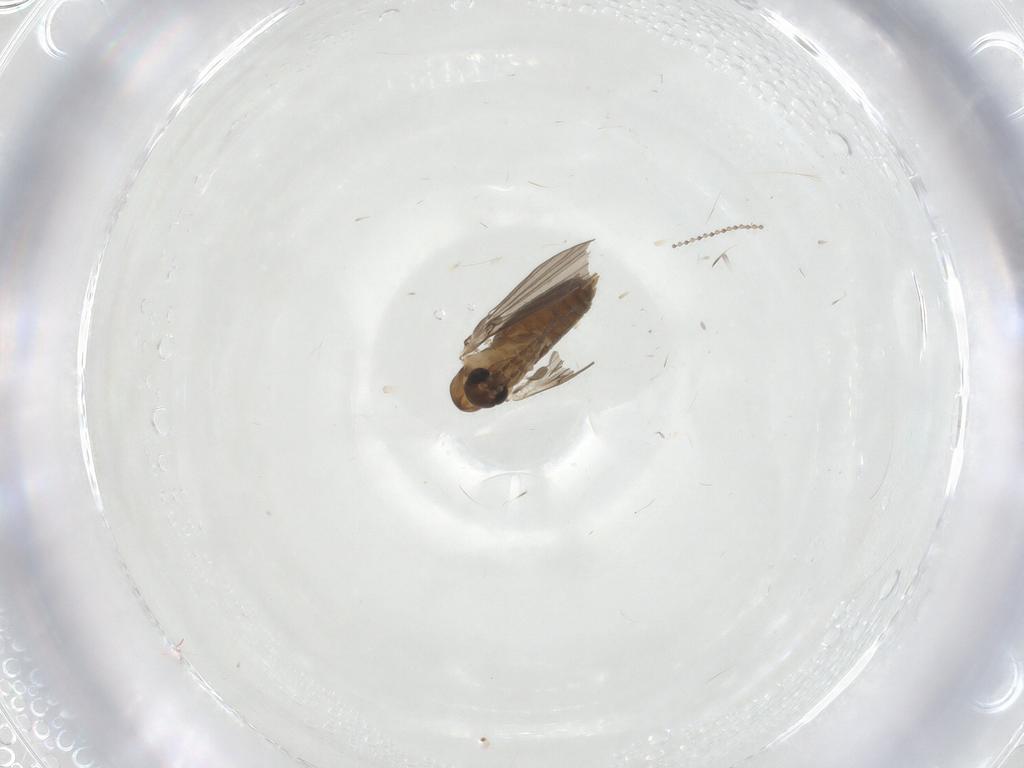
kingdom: Animalia
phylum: Arthropoda
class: Insecta
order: Diptera
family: Cecidomyiidae
